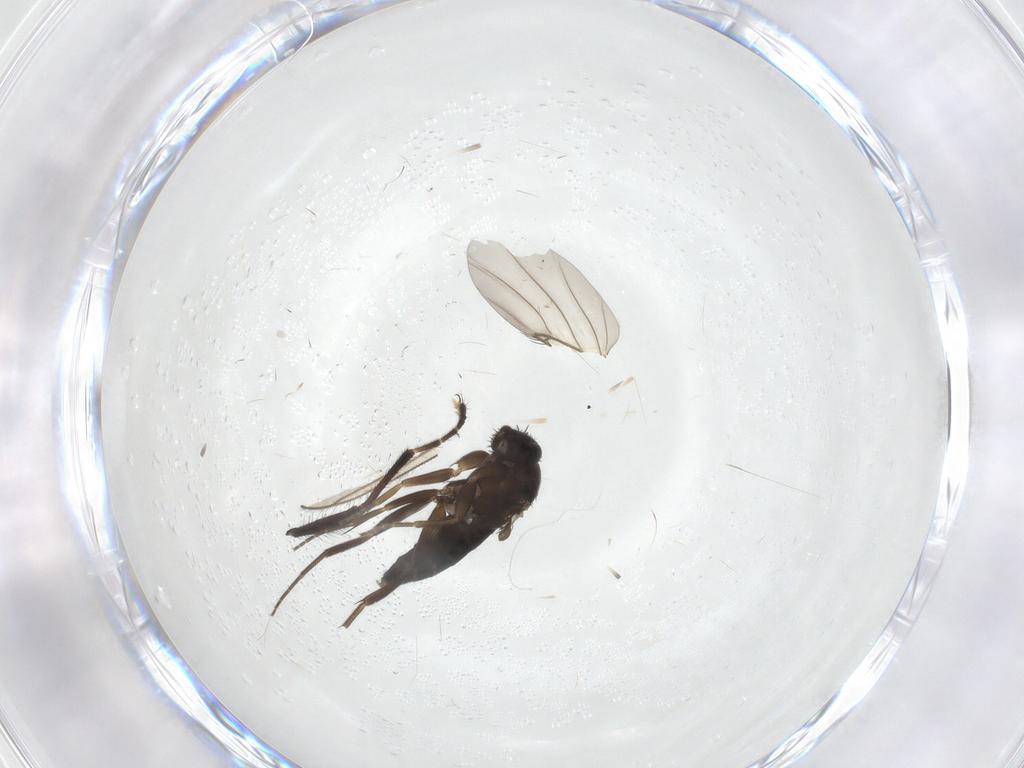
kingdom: Animalia
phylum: Arthropoda
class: Insecta
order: Diptera
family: Phoridae
